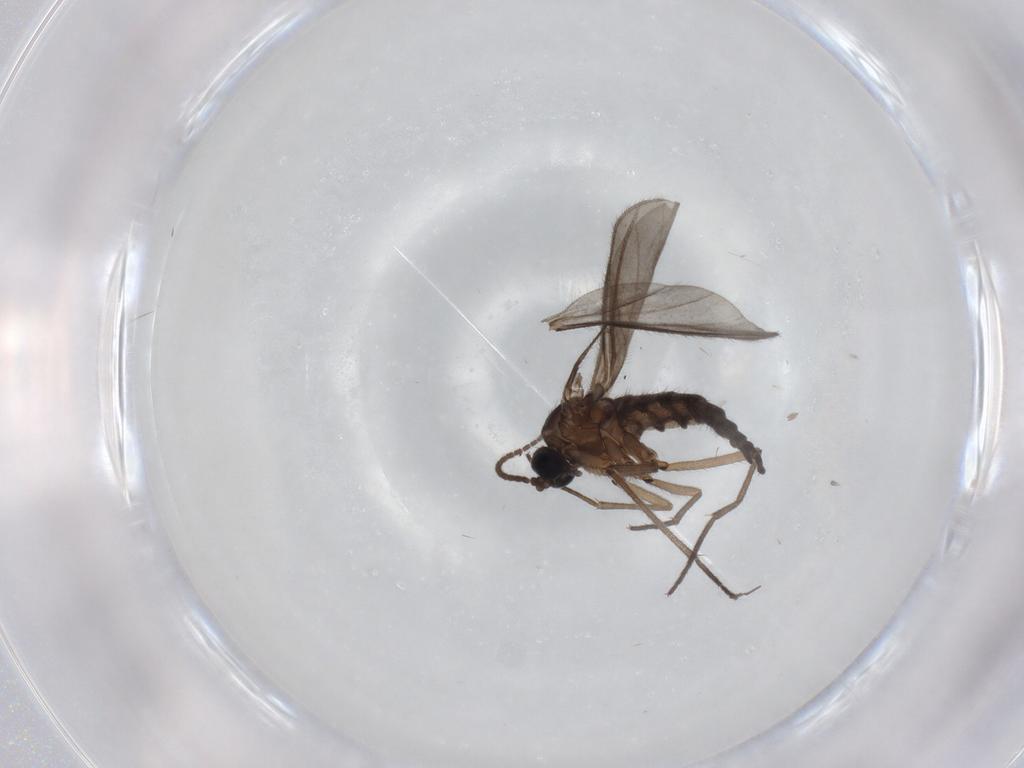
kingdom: Animalia
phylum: Arthropoda
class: Insecta
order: Diptera
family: Sciaridae
